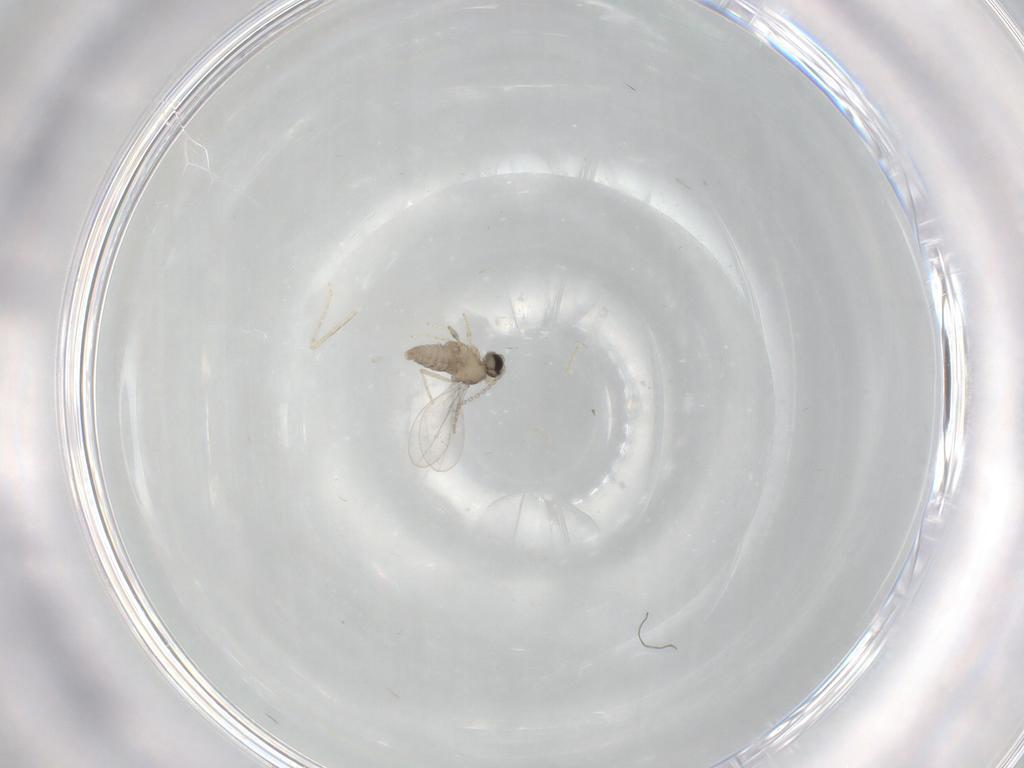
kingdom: Animalia
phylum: Arthropoda
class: Insecta
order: Diptera
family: Cecidomyiidae
